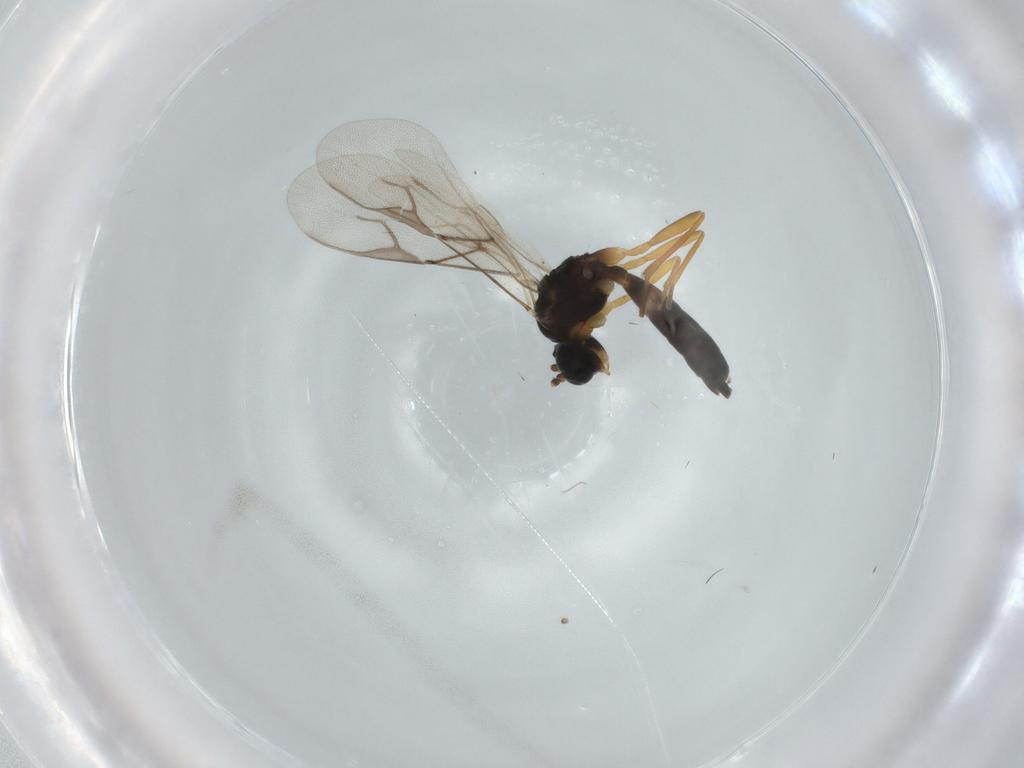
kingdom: Animalia
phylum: Arthropoda
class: Insecta
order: Hymenoptera
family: Braconidae
